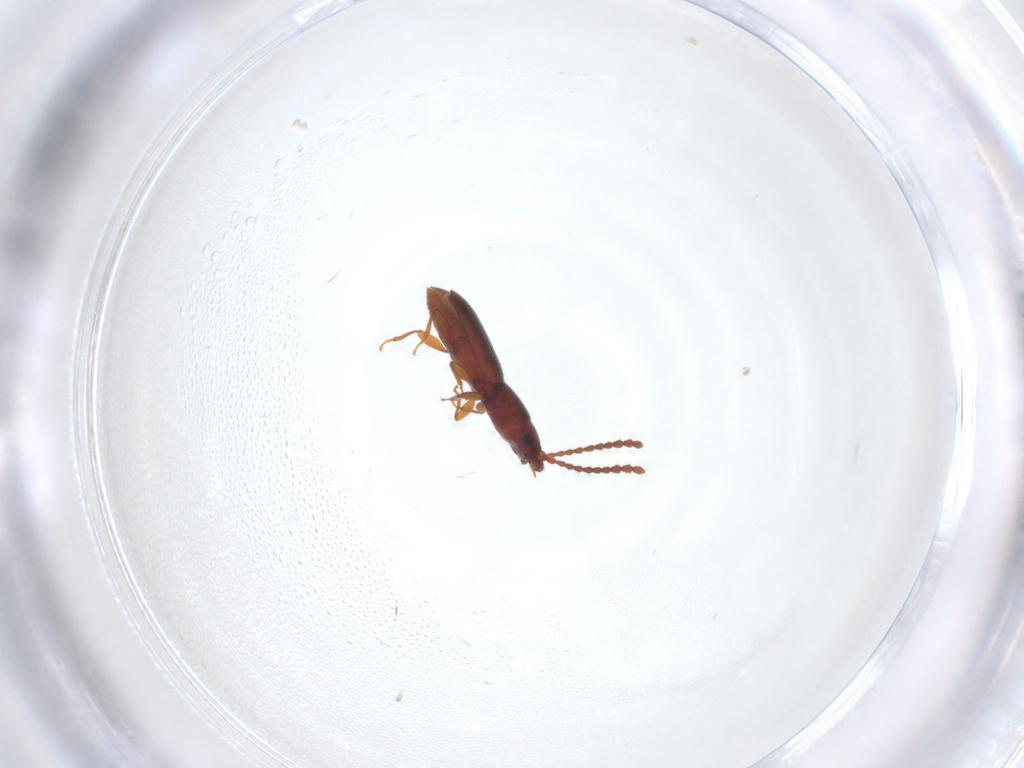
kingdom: Animalia
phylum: Arthropoda
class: Insecta
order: Coleoptera
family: Laemophloeidae
